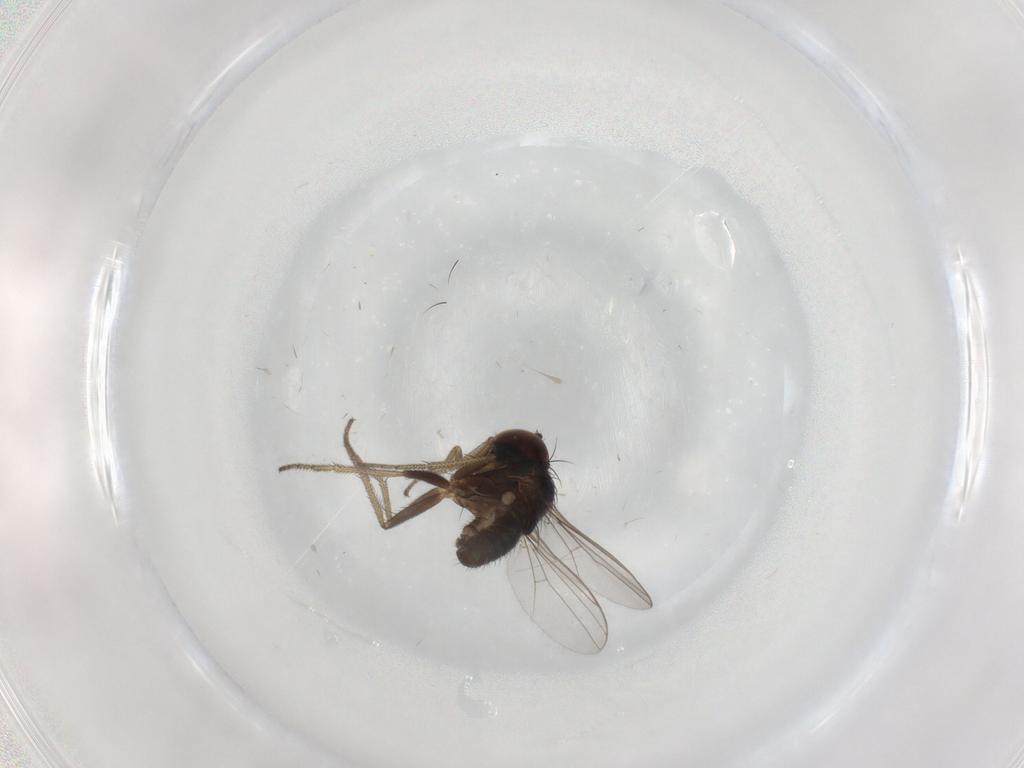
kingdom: Animalia
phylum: Arthropoda
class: Insecta
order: Diptera
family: Dolichopodidae
